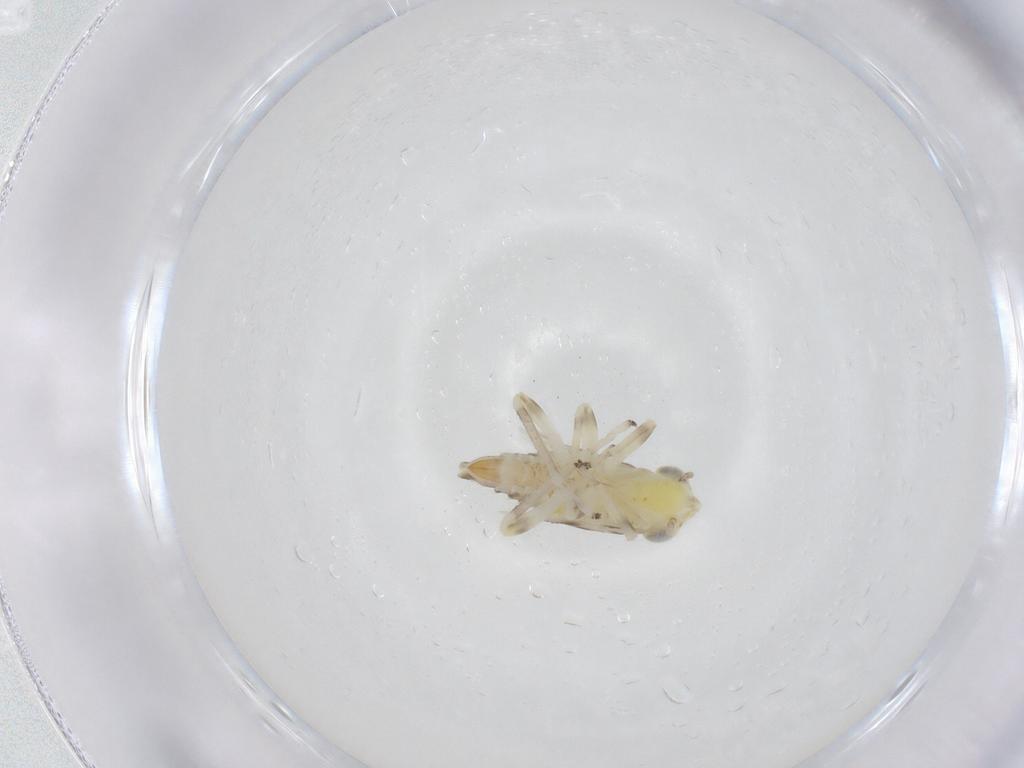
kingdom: Animalia
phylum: Arthropoda
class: Insecta
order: Hemiptera
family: Cicadellidae
